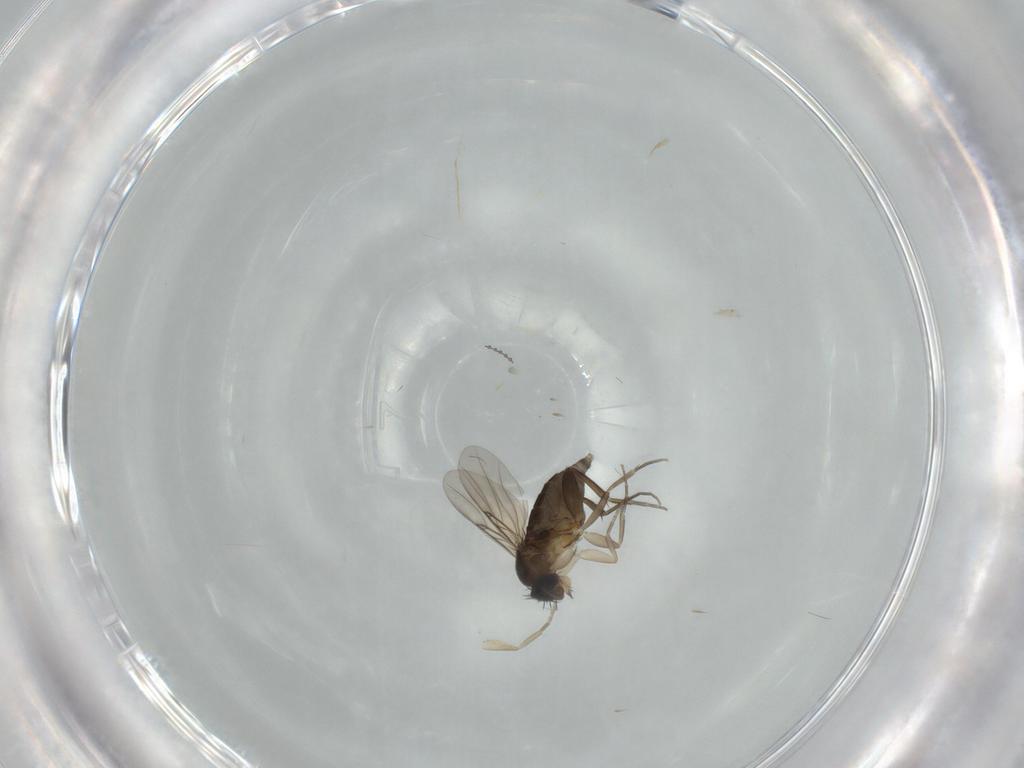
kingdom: Animalia
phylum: Arthropoda
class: Insecta
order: Diptera
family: Phoridae
